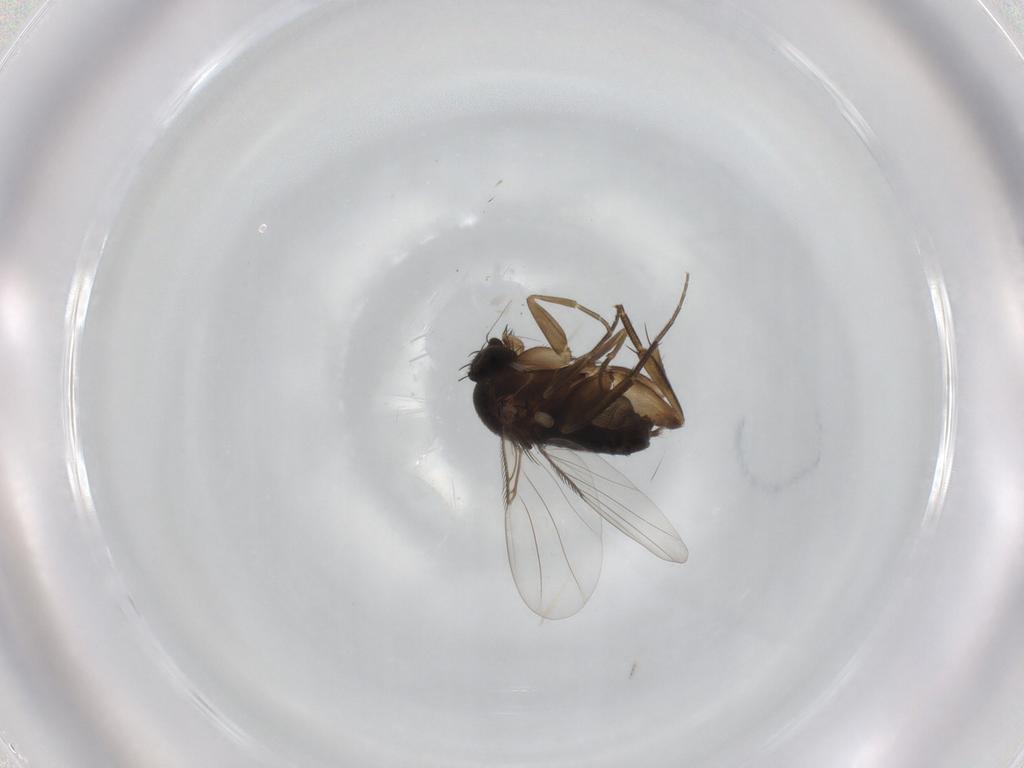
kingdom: Animalia
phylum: Arthropoda
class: Insecta
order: Diptera
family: Phoridae
